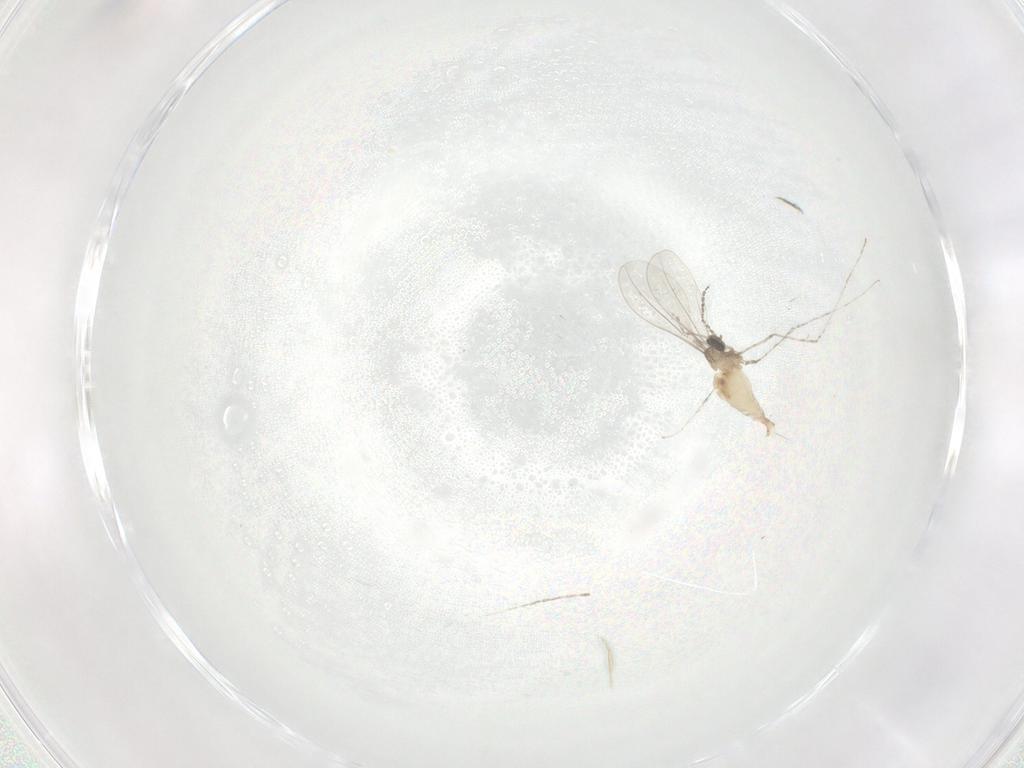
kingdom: Animalia
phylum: Arthropoda
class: Insecta
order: Diptera
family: Cecidomyiidae
